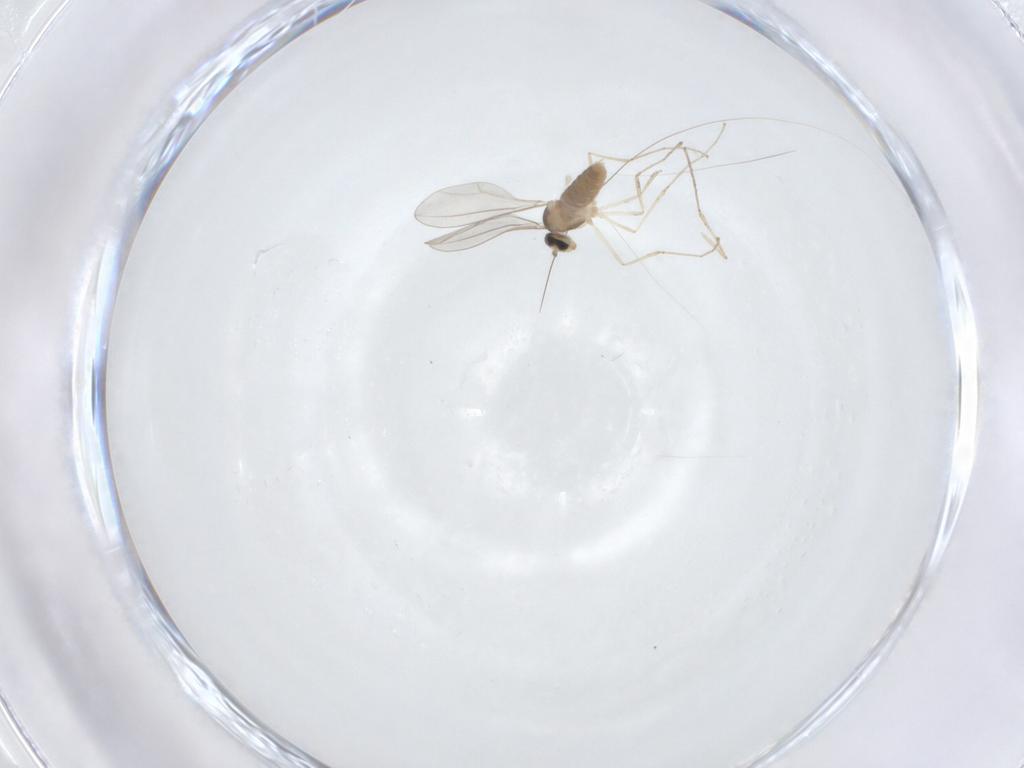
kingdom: Animalia
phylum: Arthropoda
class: Insecta
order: Diptera
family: Cecidomyiidae
